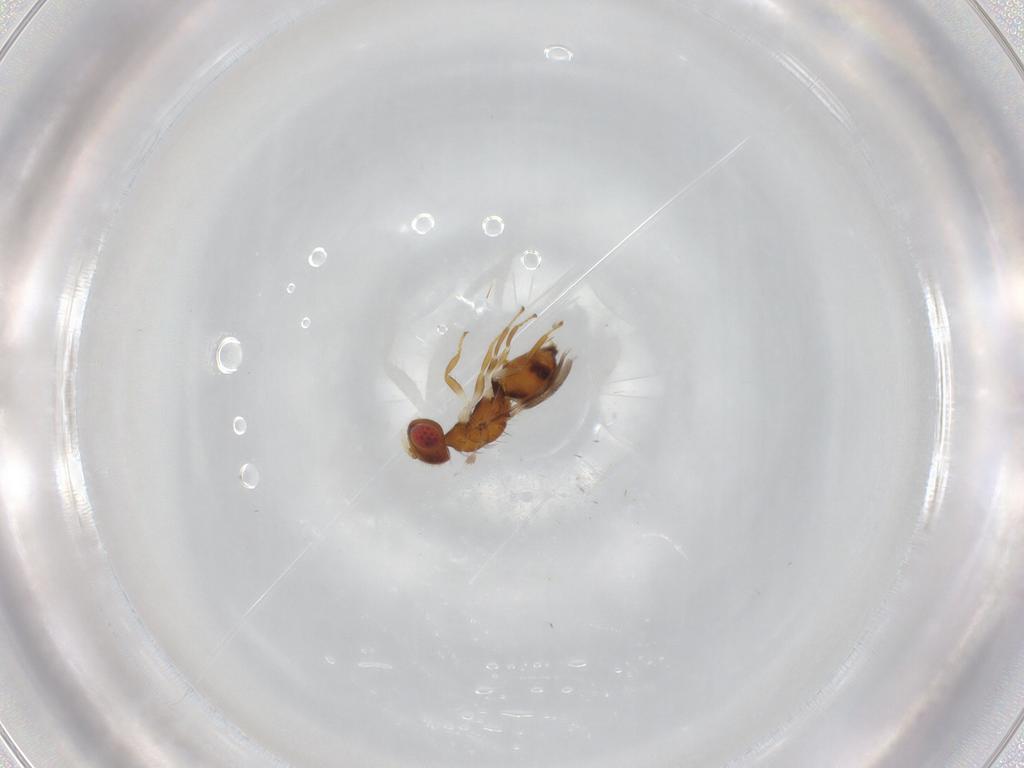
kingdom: Animalia
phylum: Arthropoda
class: Insecta
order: Hymenoptera
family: Eulophidae
